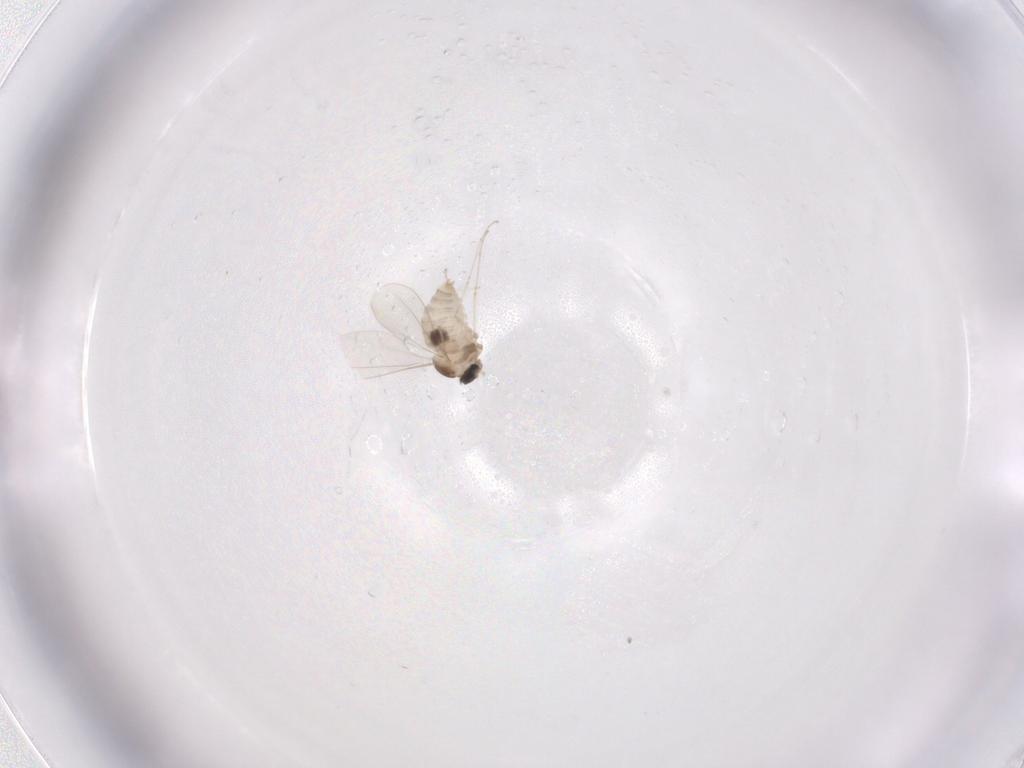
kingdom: Animalia
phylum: Arthropoda
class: Insecta
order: Diptera
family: Cecidomyiidae
